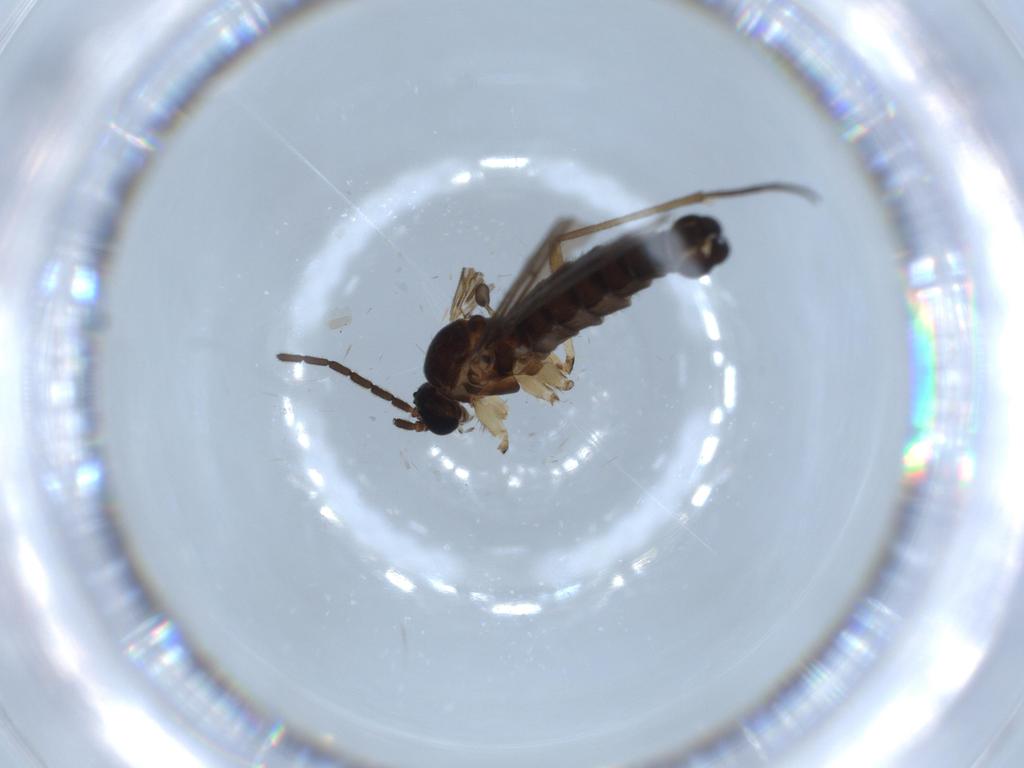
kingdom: Animalia
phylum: Arthropoda
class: Insecta
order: Diptera
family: Sciaridae
